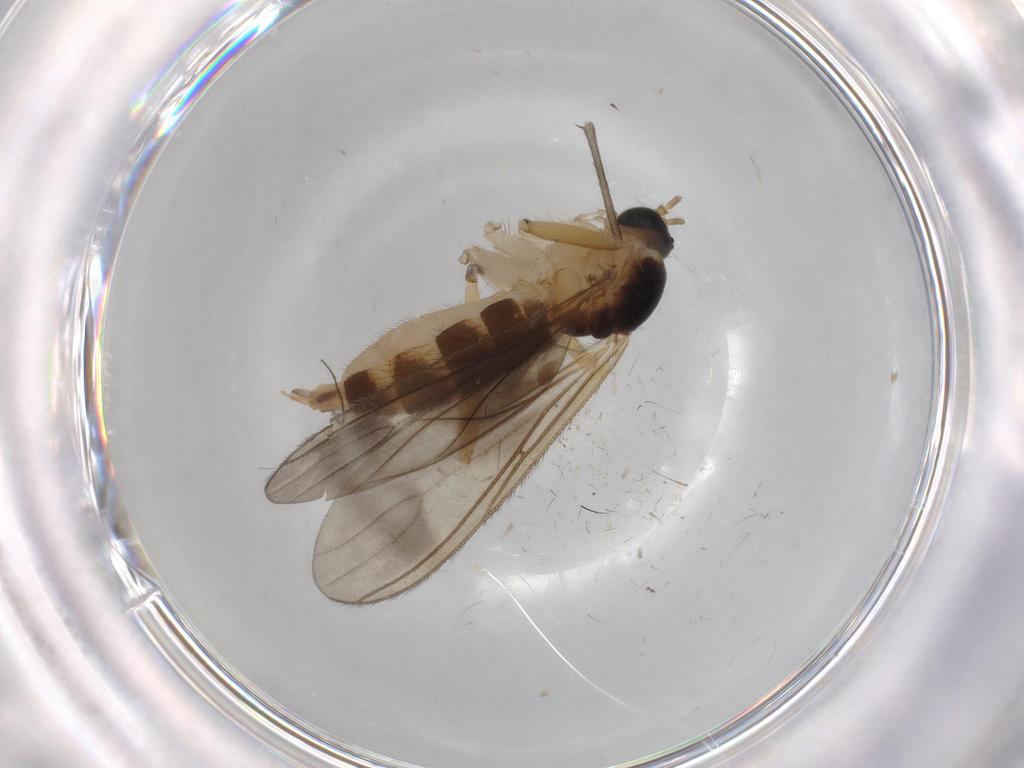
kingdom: Animalia
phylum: Arthropoda
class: Insecta
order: Diptera
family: Sciaridae
